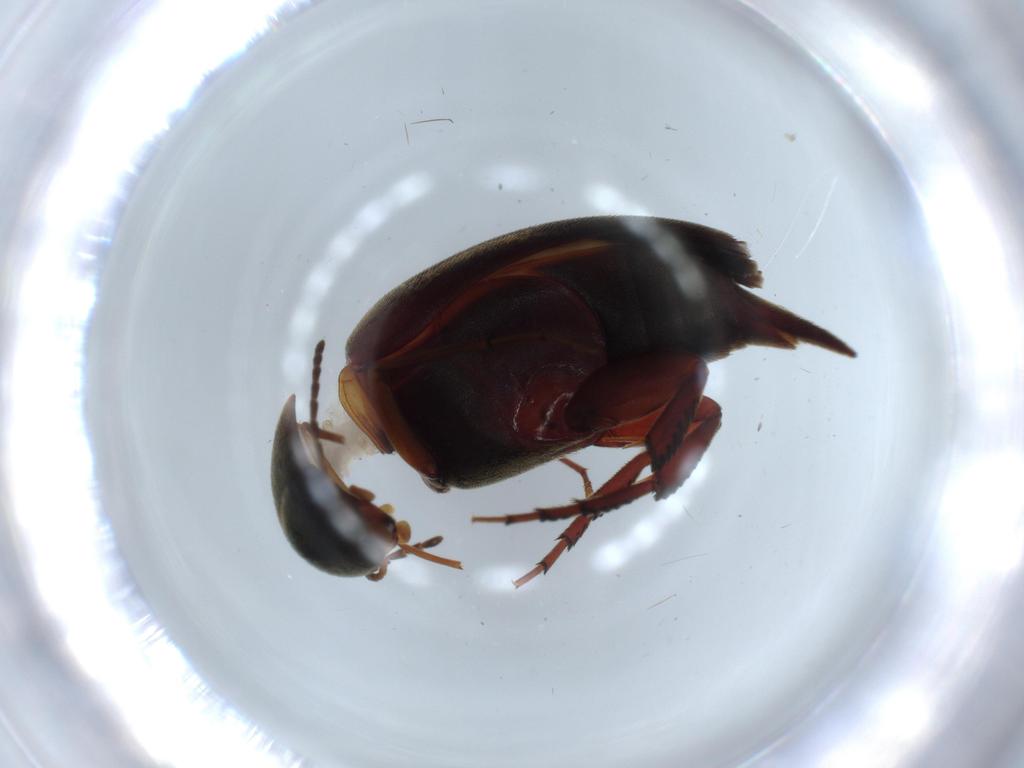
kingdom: Animalia
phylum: Arthropoda
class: Insecta
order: Coleoptera
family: Mordellidae
